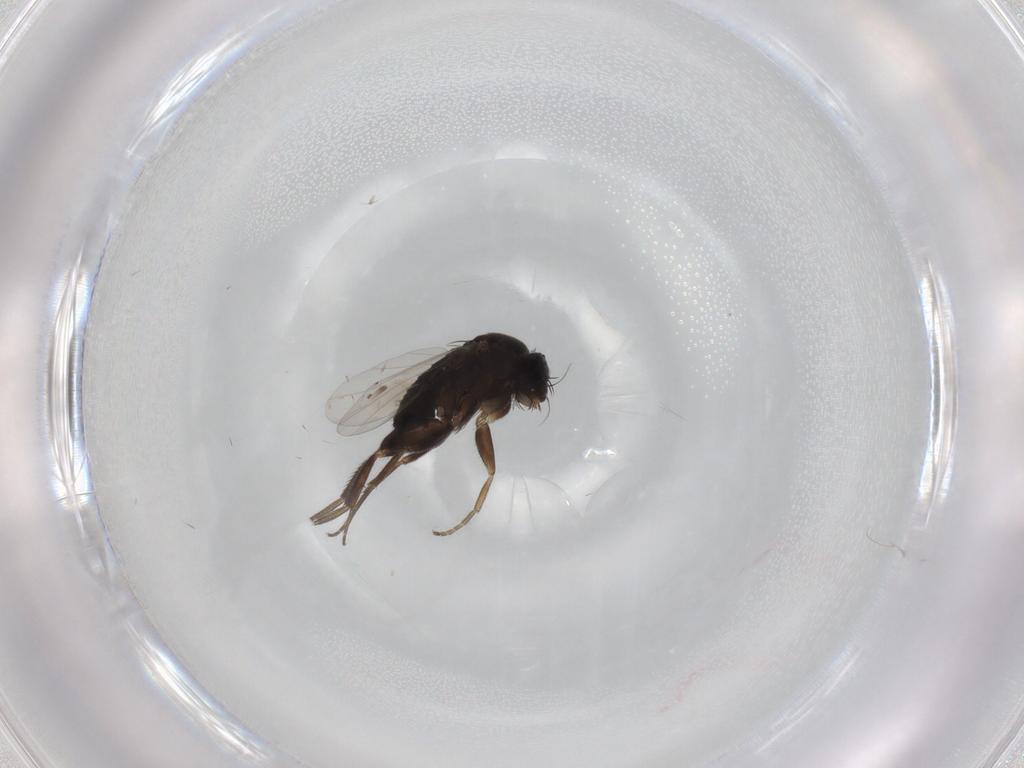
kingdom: Animalia
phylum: Arthropoda
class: Insecta
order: Diptera
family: Phoridae
